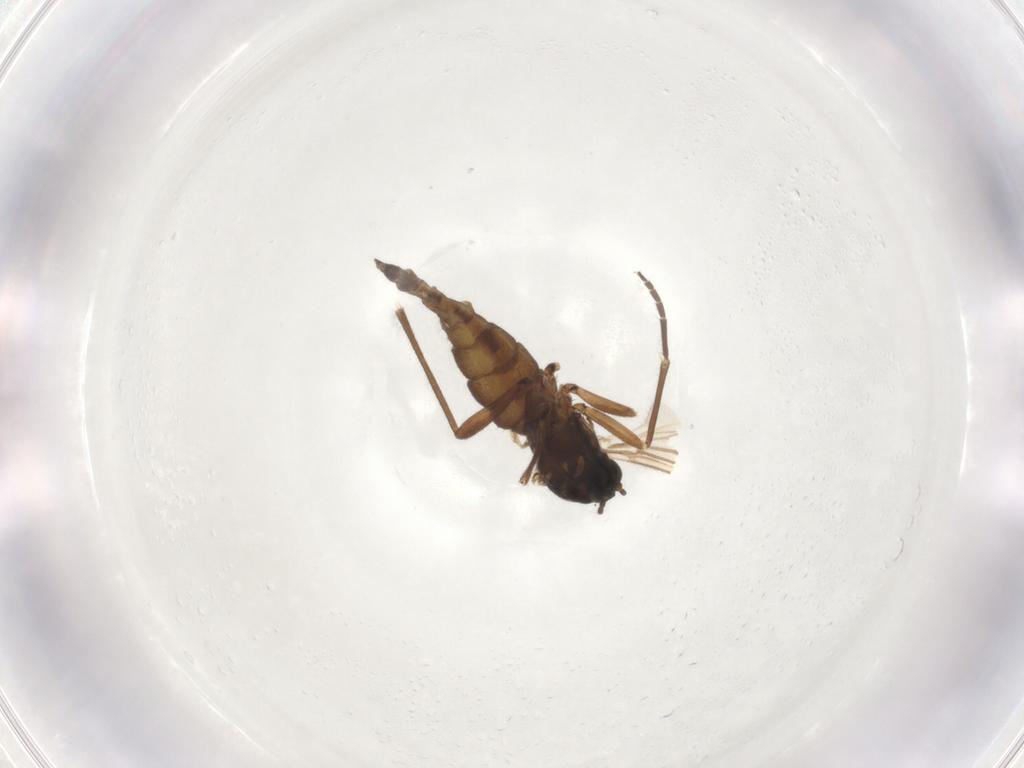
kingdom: Animalia
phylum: Arthropoda
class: Insecta
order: Diptera
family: Sciaridae
